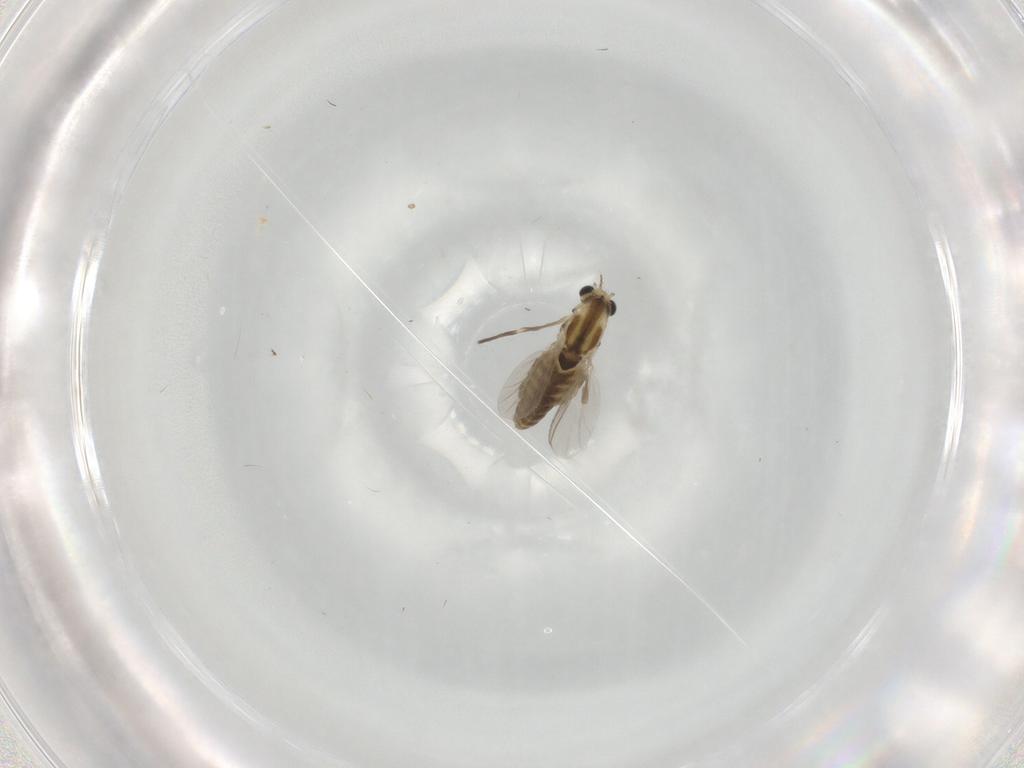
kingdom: Animalia
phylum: Arthropoda
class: Insecta
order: Diptera
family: Chironomidae
